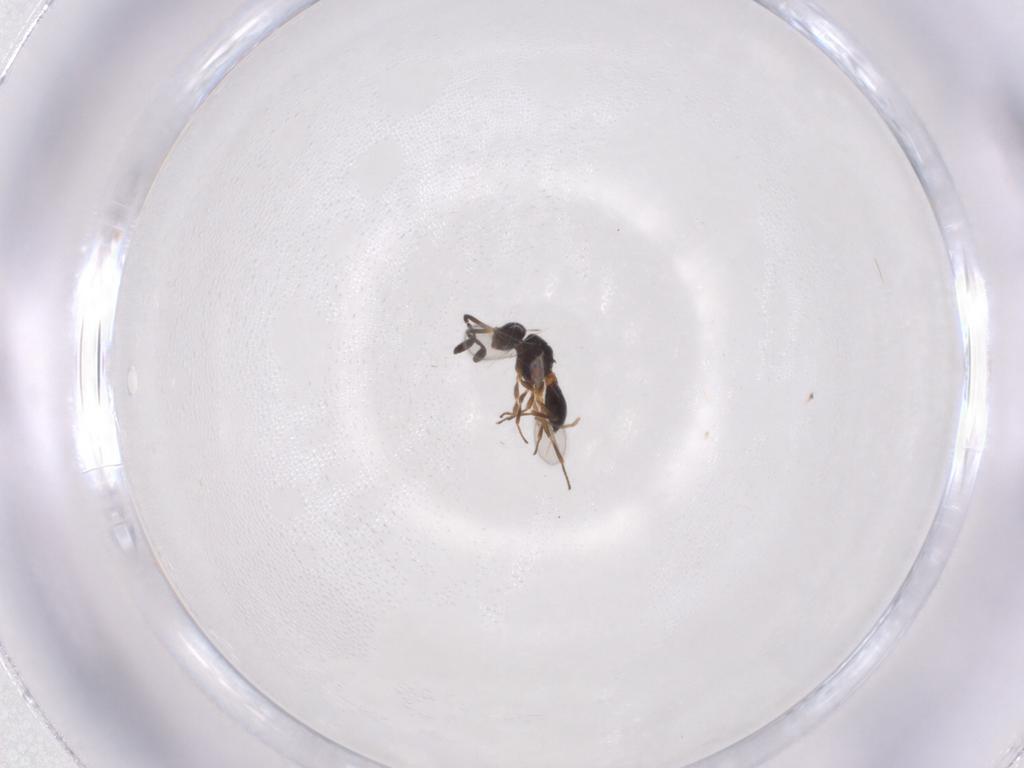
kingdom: Animalia
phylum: Arthropoda
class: Insecta
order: Hymenoptera
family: Scelionidae
